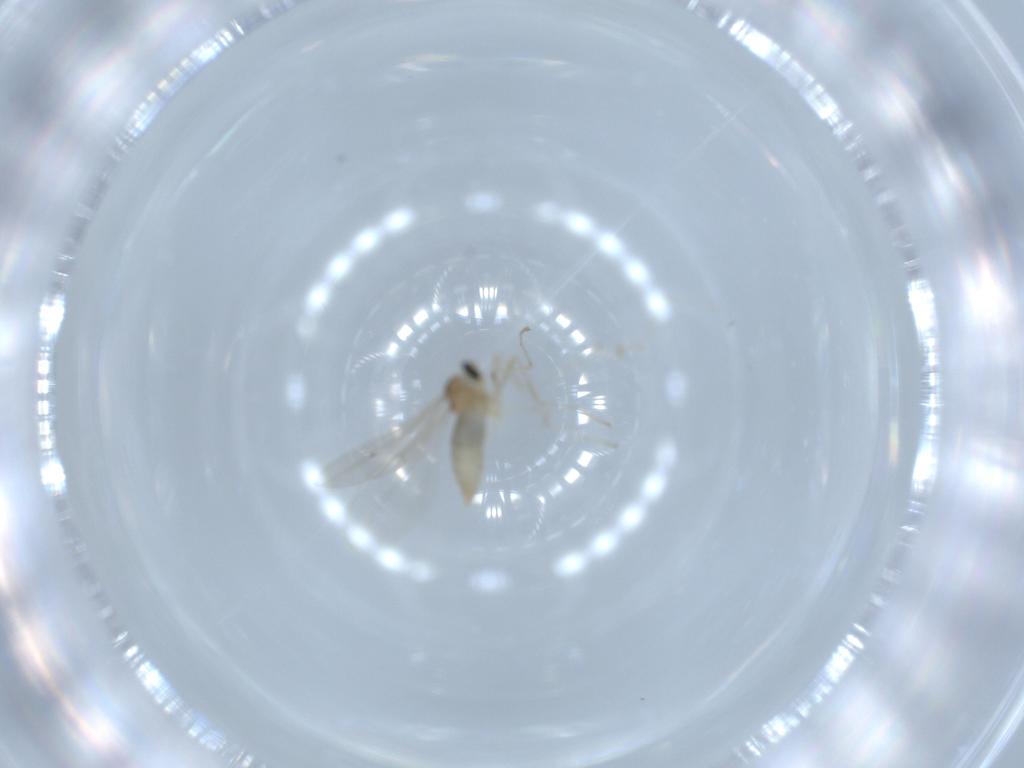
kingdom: Animalia
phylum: Arthropoda
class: Insecta
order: Diptera
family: Cecidomyiidae
